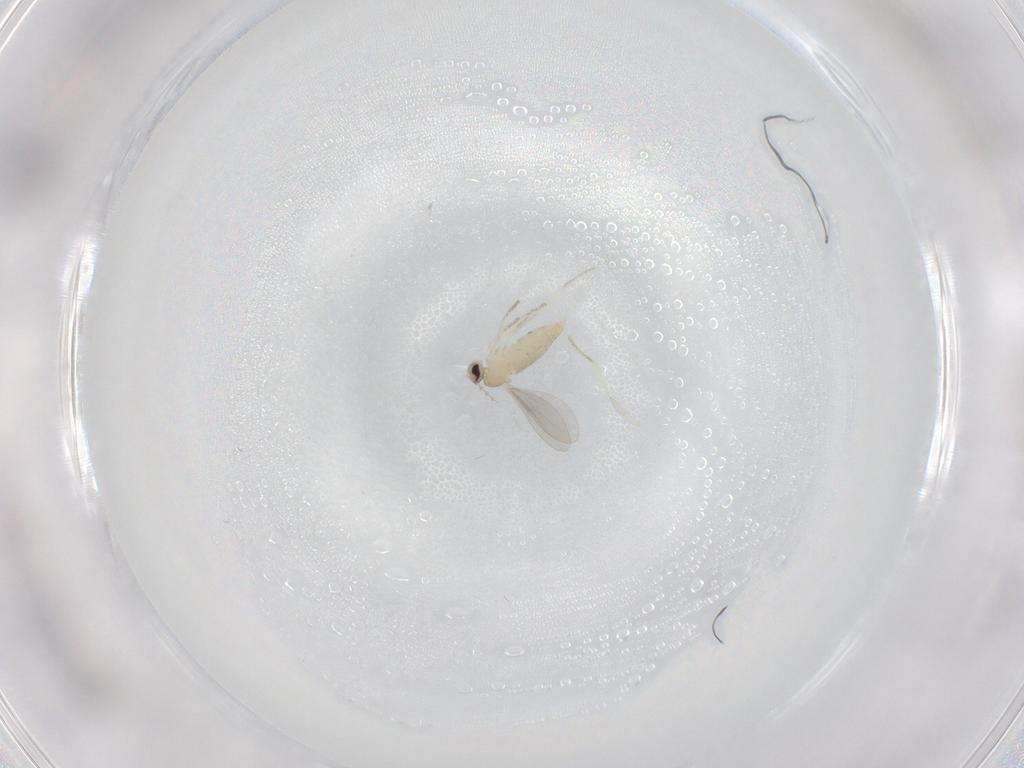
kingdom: Animalia
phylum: Arthropoda
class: Insecta
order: Diptera
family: Cecidomyiidae
